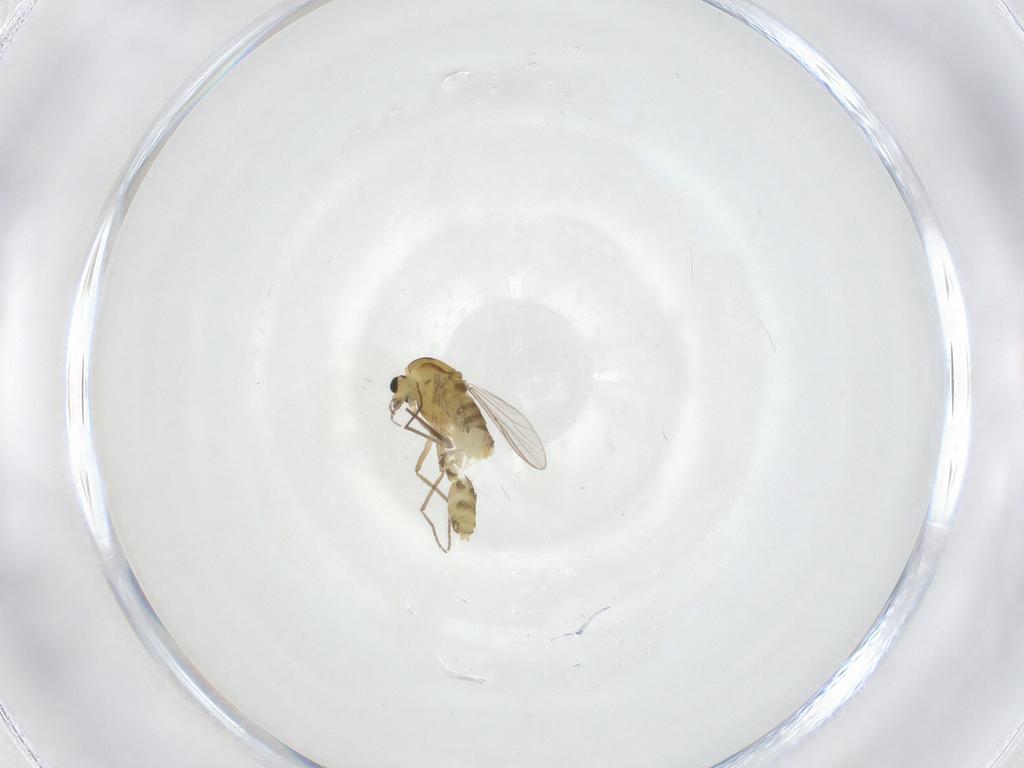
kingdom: Animalia
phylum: Arthropoda
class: Insecta
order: Diptera
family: Chironomidae
